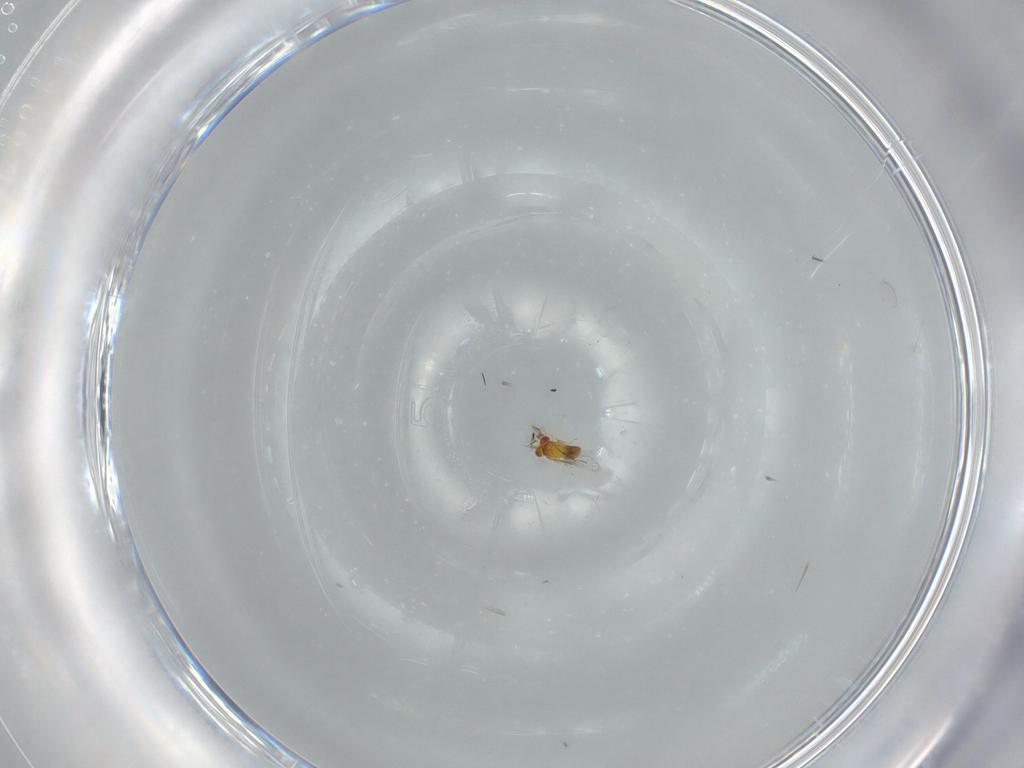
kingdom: Animalia
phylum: Arthropoda
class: Insecta
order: Hymenoptera
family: Trichogrammatidae
